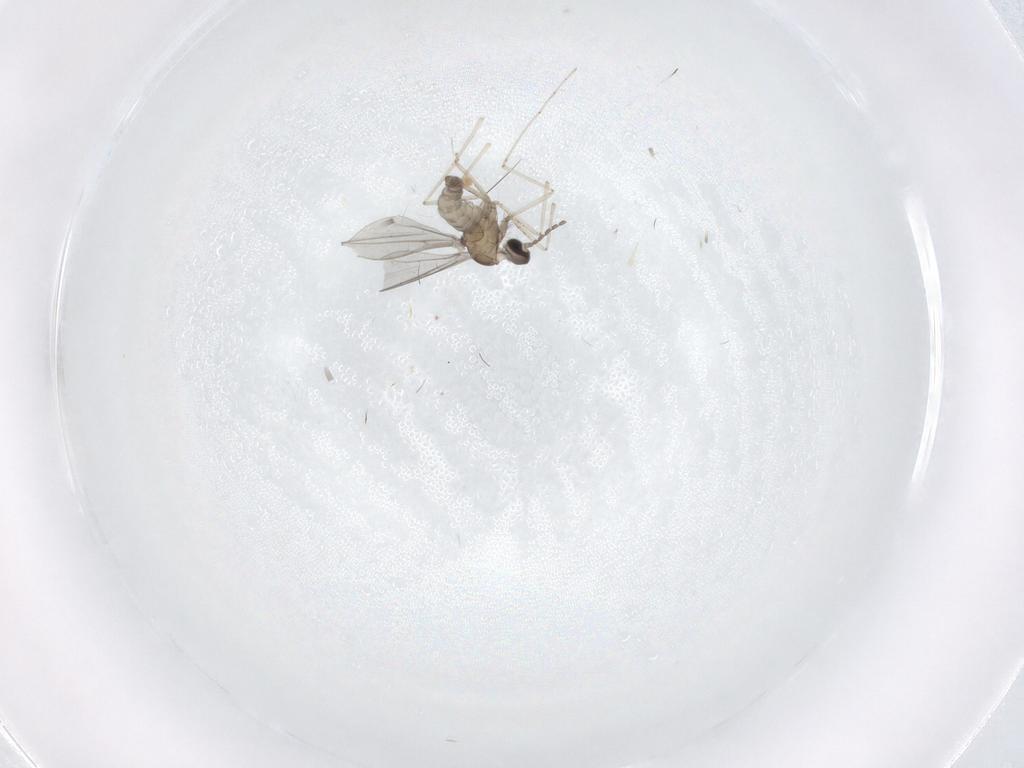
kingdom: Animalia
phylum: Arthropoda
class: Insecta
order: Diptera
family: Cecidomyiidae
